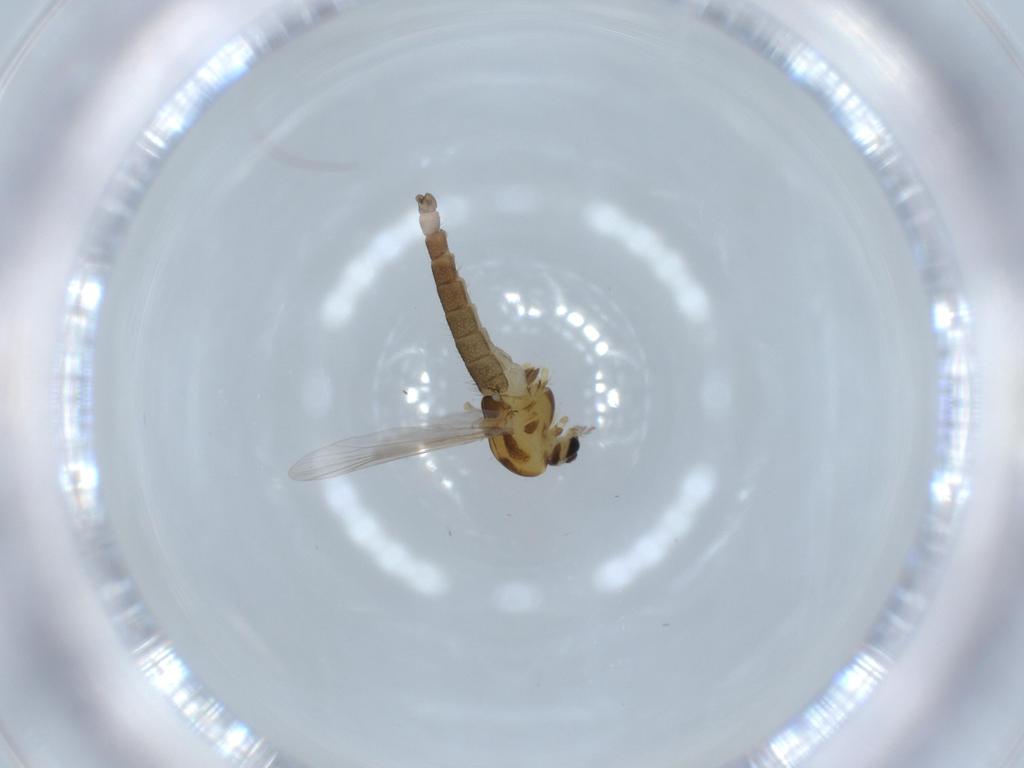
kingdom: Animalia
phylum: Arthropoda
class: Insecta
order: Diptera
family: Chironomidae
